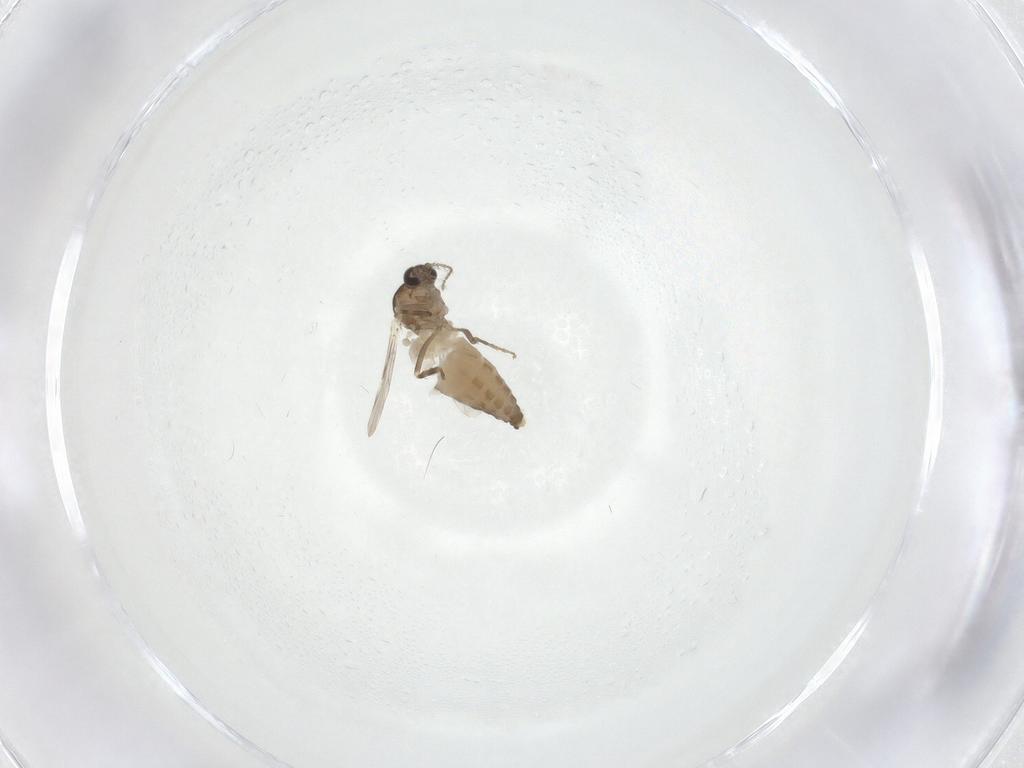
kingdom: Animalia
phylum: Arthropoda
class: Insecta
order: Diptera
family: Ceratopogonidae
